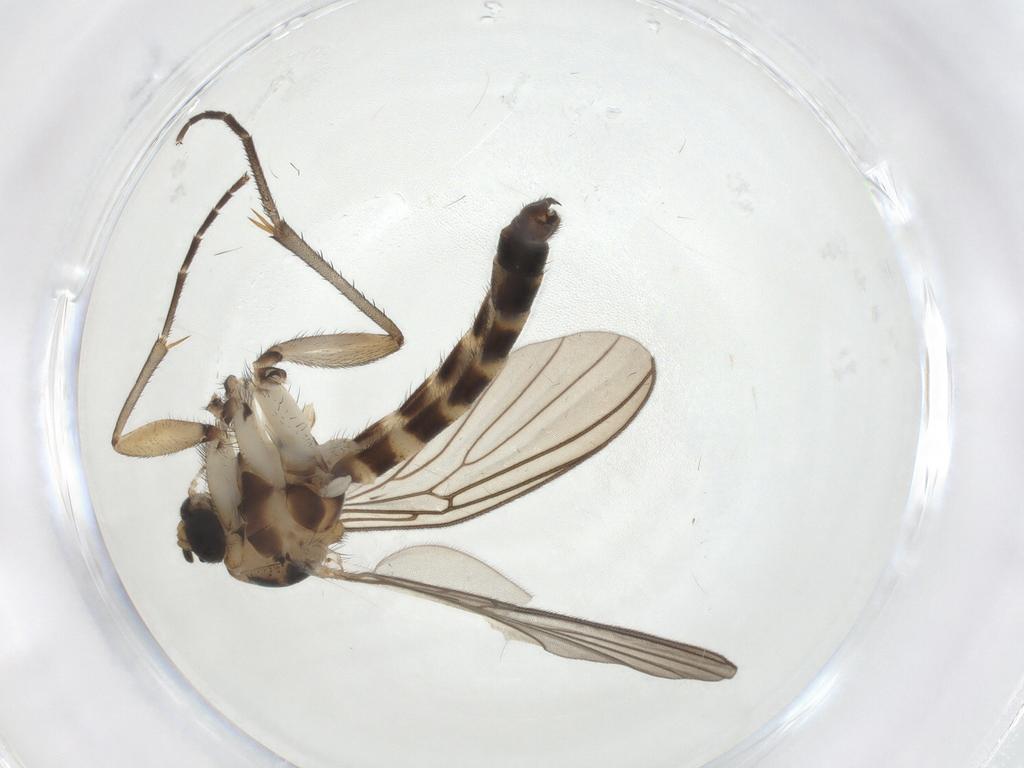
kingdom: Animalia
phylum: Arthropoda
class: Insecta
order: Diptera
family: Mycetophilidae
